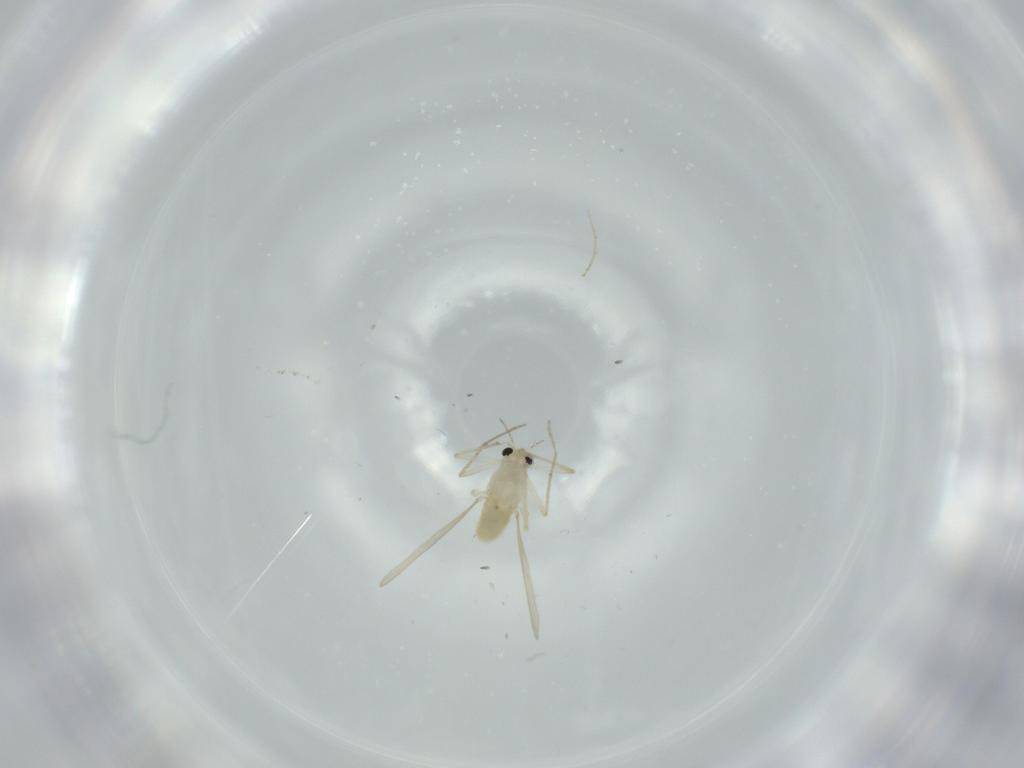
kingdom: Animalia
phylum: Arthropoda
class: Insecta
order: Diptera
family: Chironomidae
